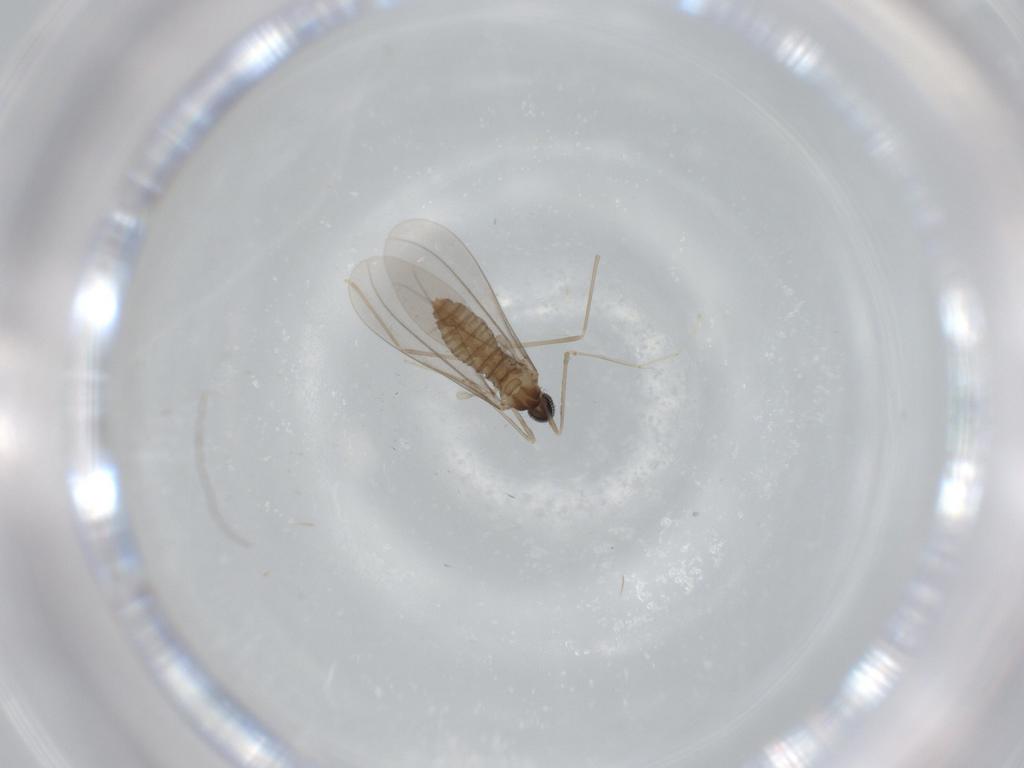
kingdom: Animalia
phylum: Arthropoda
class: Insecta
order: Diptera
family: Cecidomyiidae
